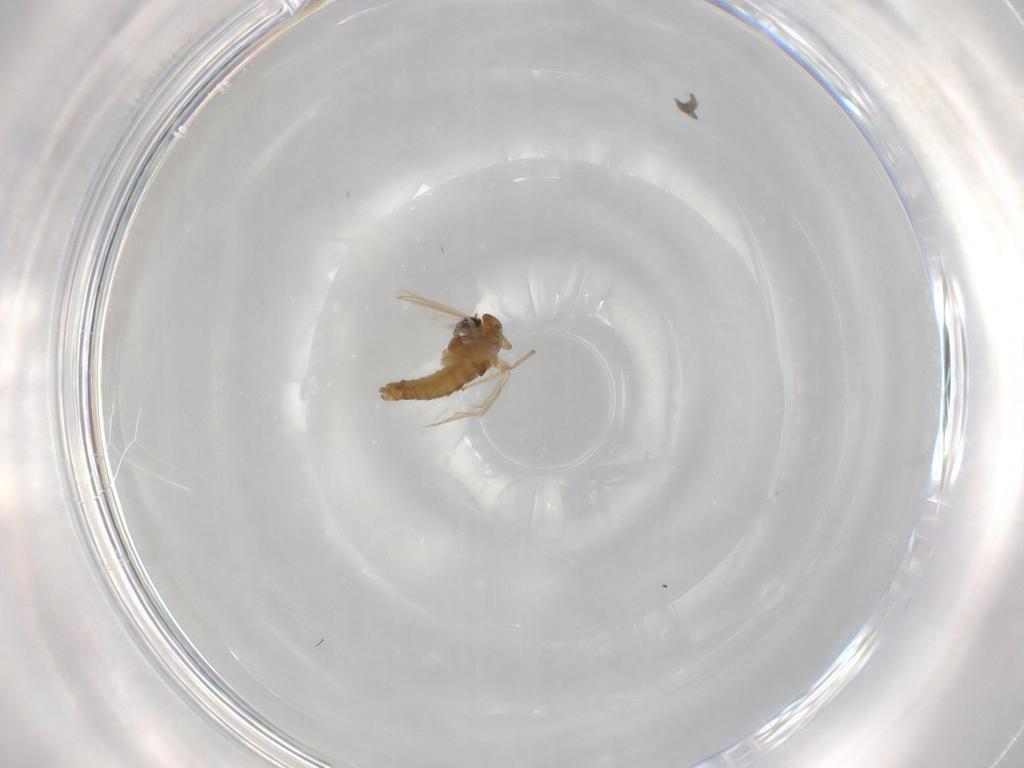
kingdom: Animalia
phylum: Arthropoda
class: Insecta
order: Diptera
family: Chironomidae
